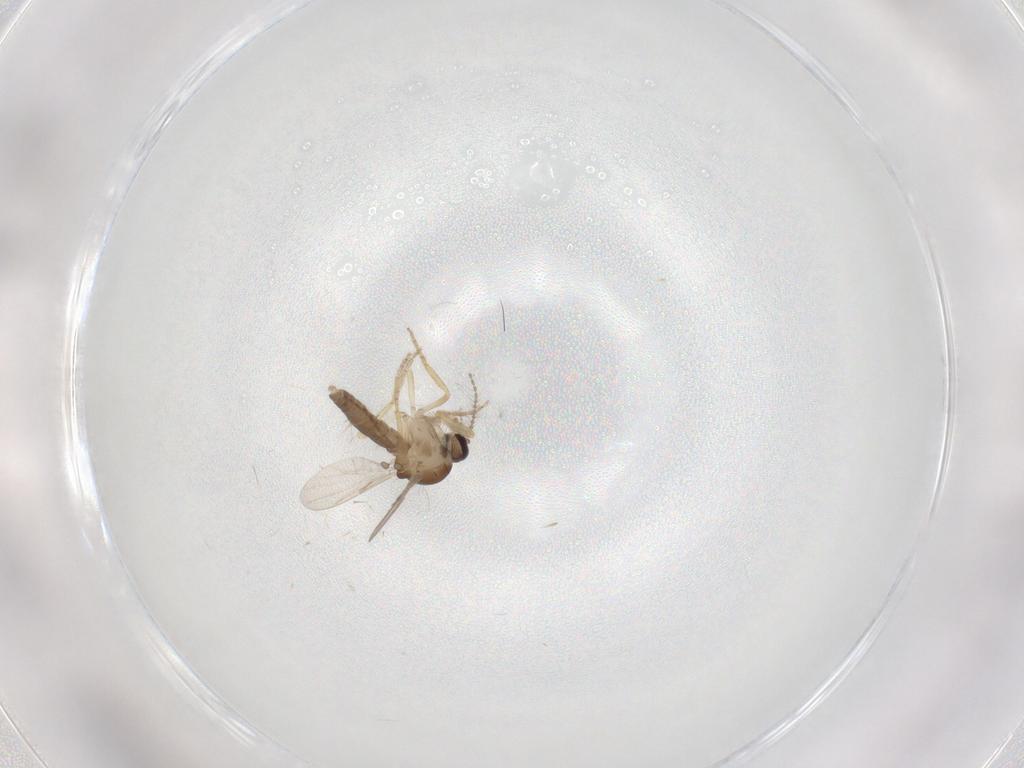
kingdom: Animalia
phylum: Arthropoda
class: Insecta
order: Diptera
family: Ceratopogonidae
